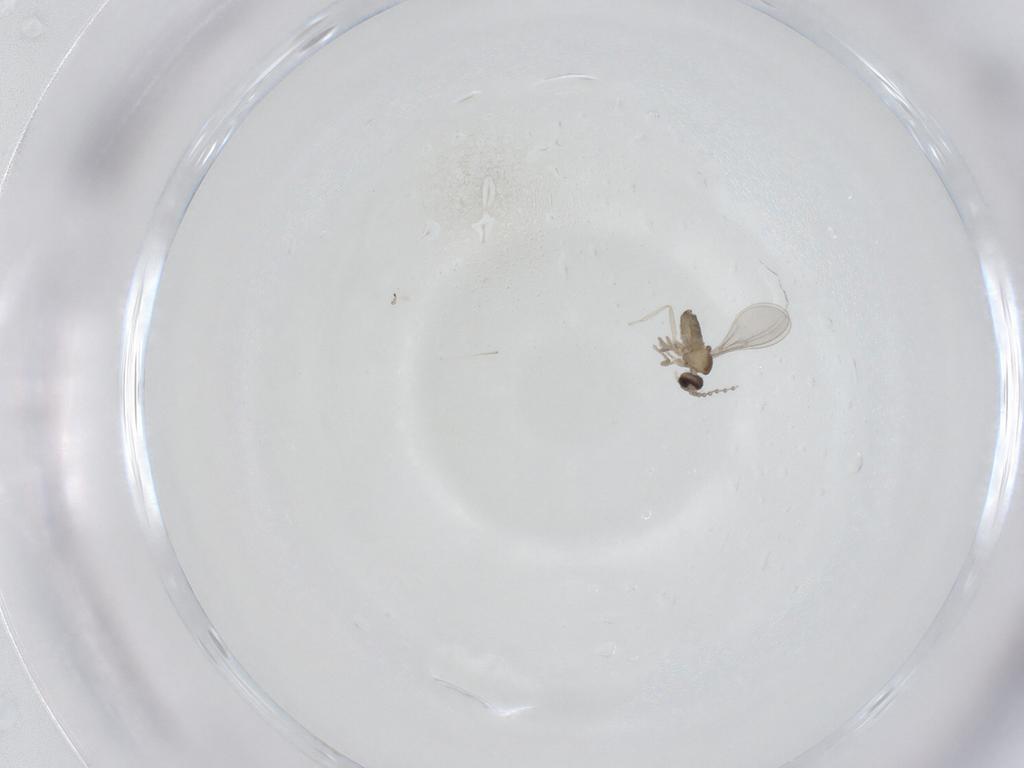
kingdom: Animalia
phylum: Arthropoda
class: Insecta
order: Diptera
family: Cecidomyiidae
